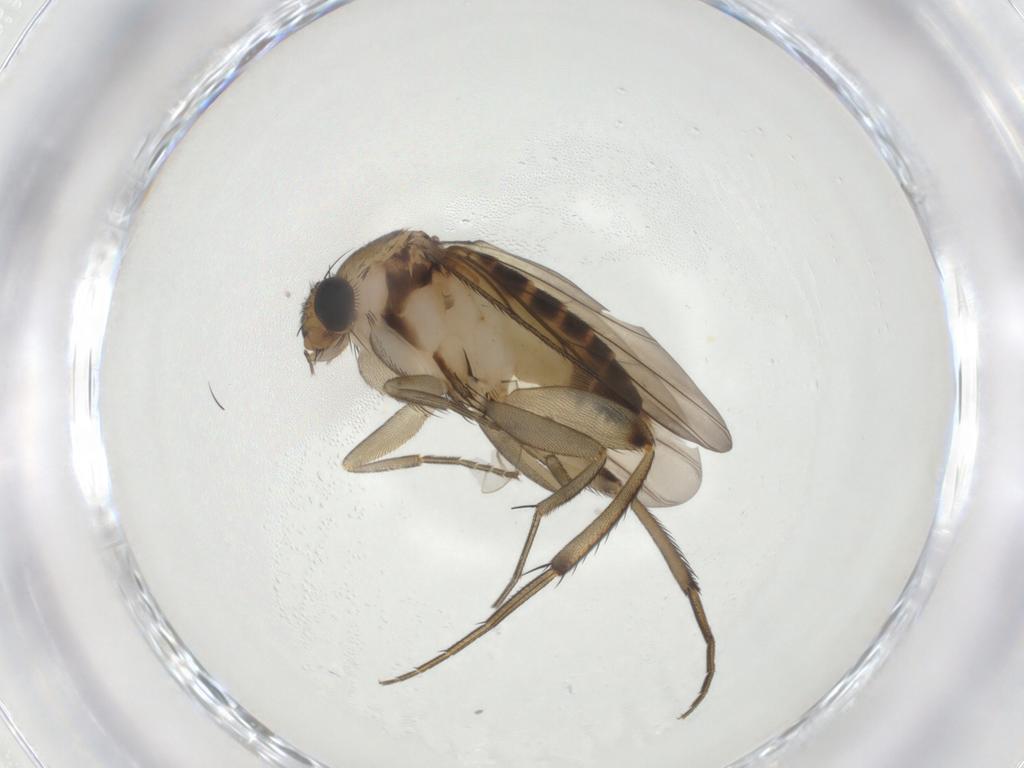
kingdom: Animalia
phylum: Arthropoda
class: Insecta
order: Diptera
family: Phoridae
